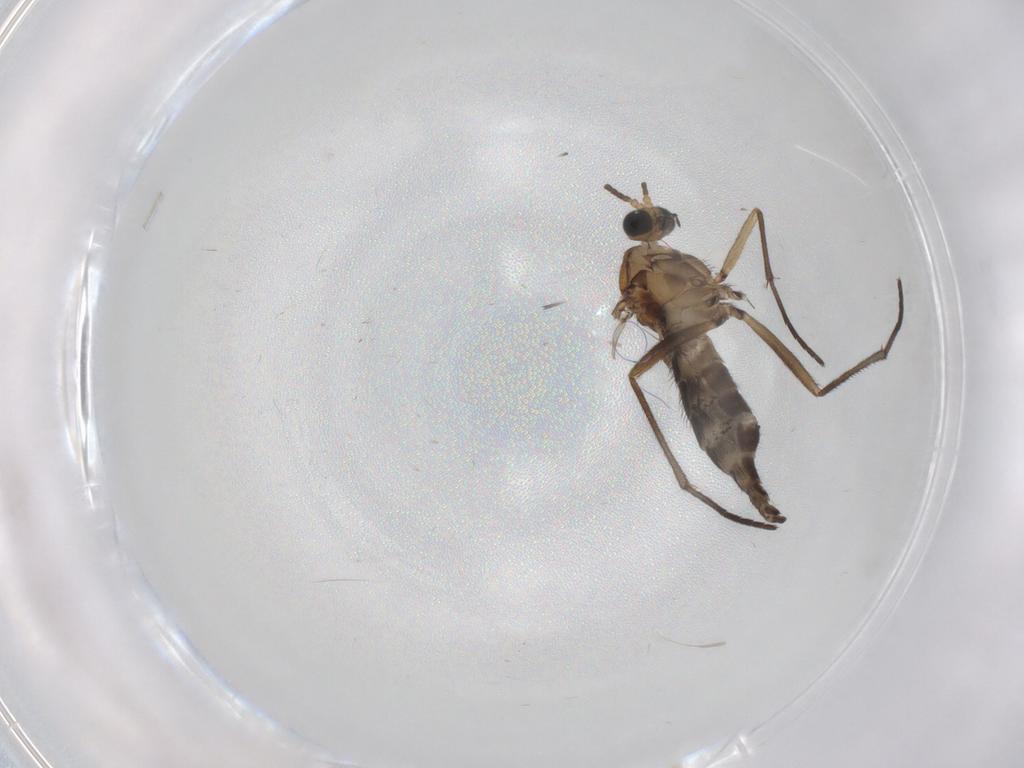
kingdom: Animalia
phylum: Arthropoda
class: Insecta
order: Diptera
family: Sciaridae
